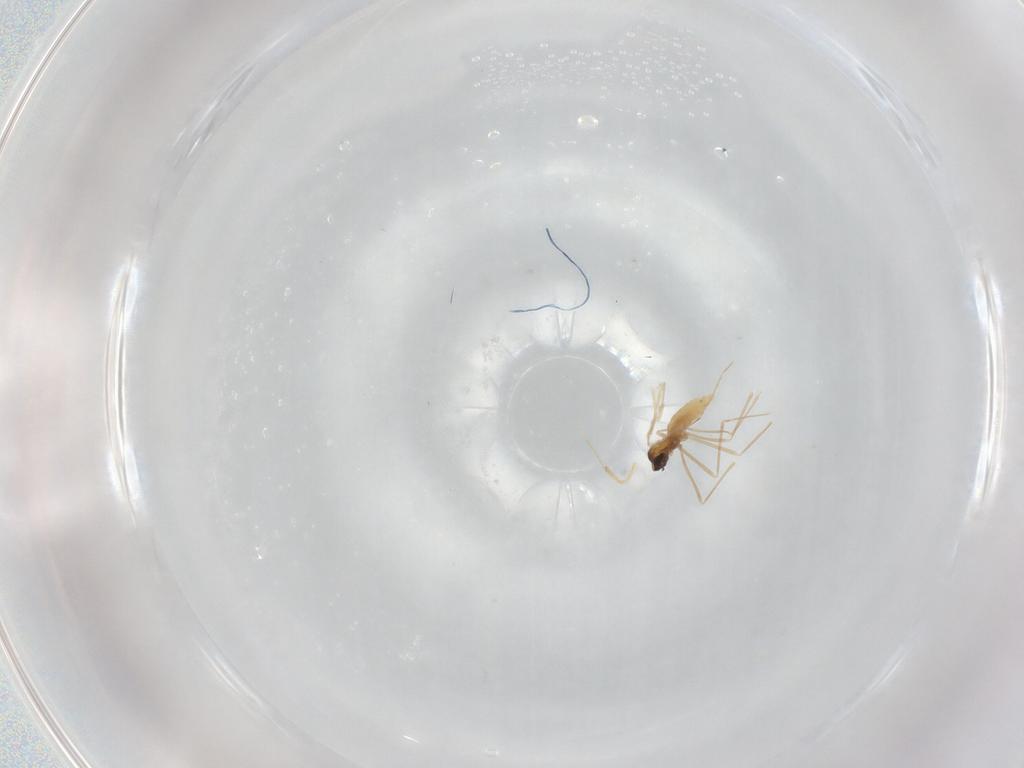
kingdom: Animalia
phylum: Arthropoda
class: Insecta
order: Diptera
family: Cecidomyiidae
